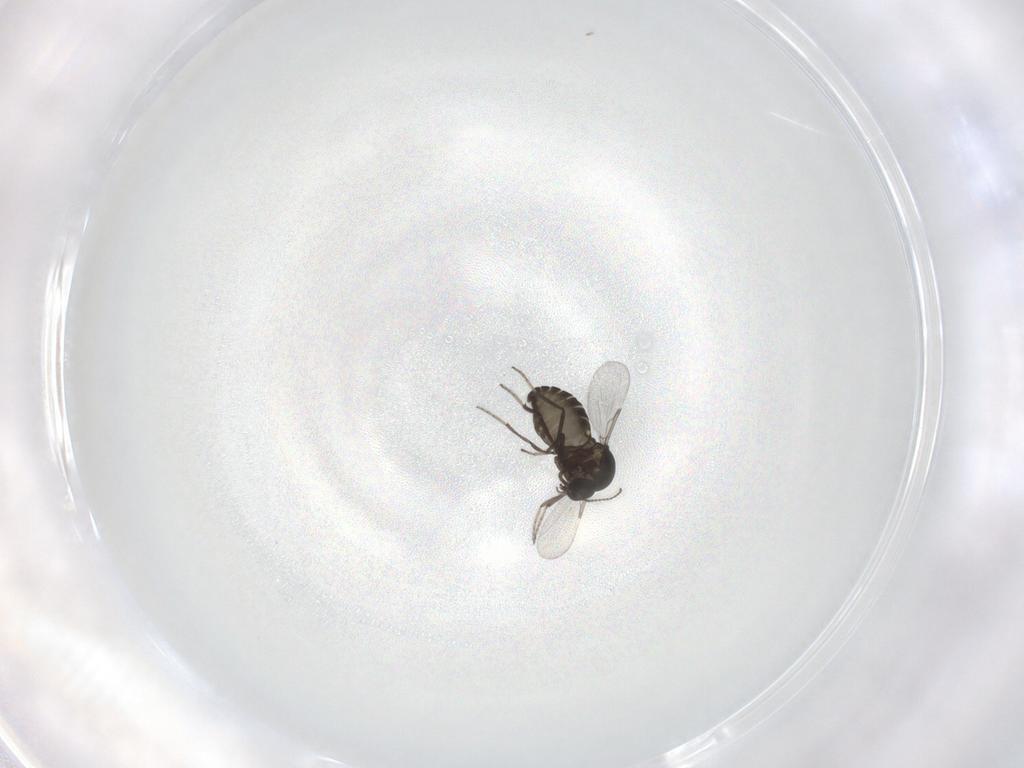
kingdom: Animalia
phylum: Arthropoda
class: Insecta
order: Diptera
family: Ceratopogonidae
